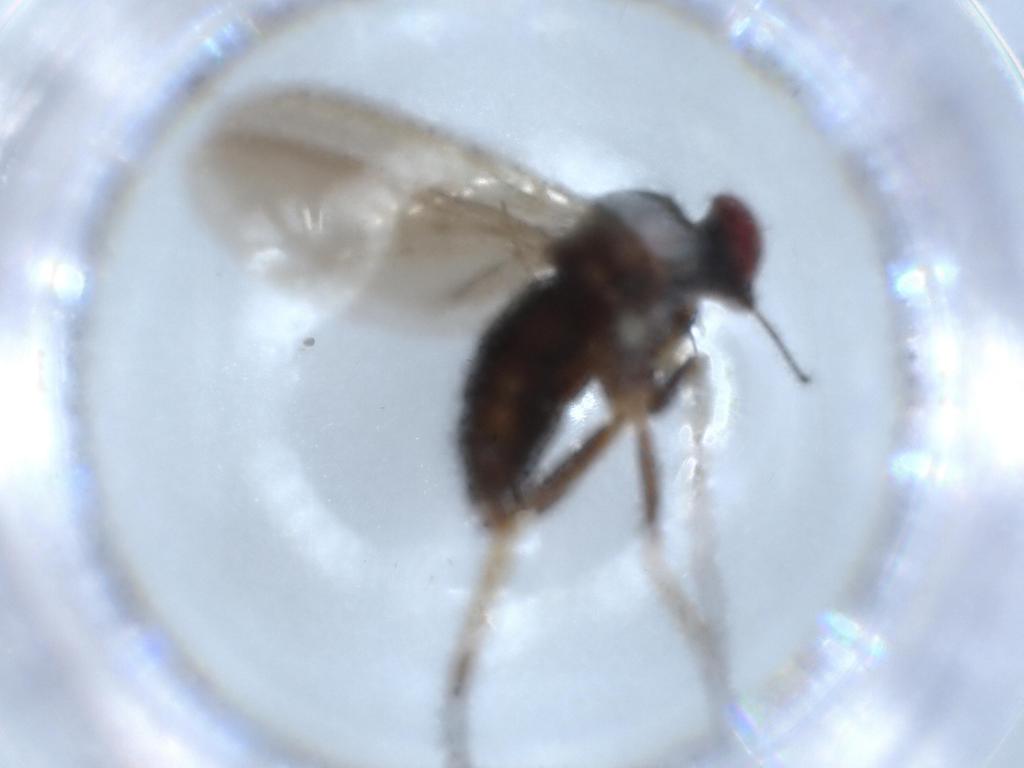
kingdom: Animalia
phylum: Arthropoda
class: Insecta
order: Diptera
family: Dolichopodidae
